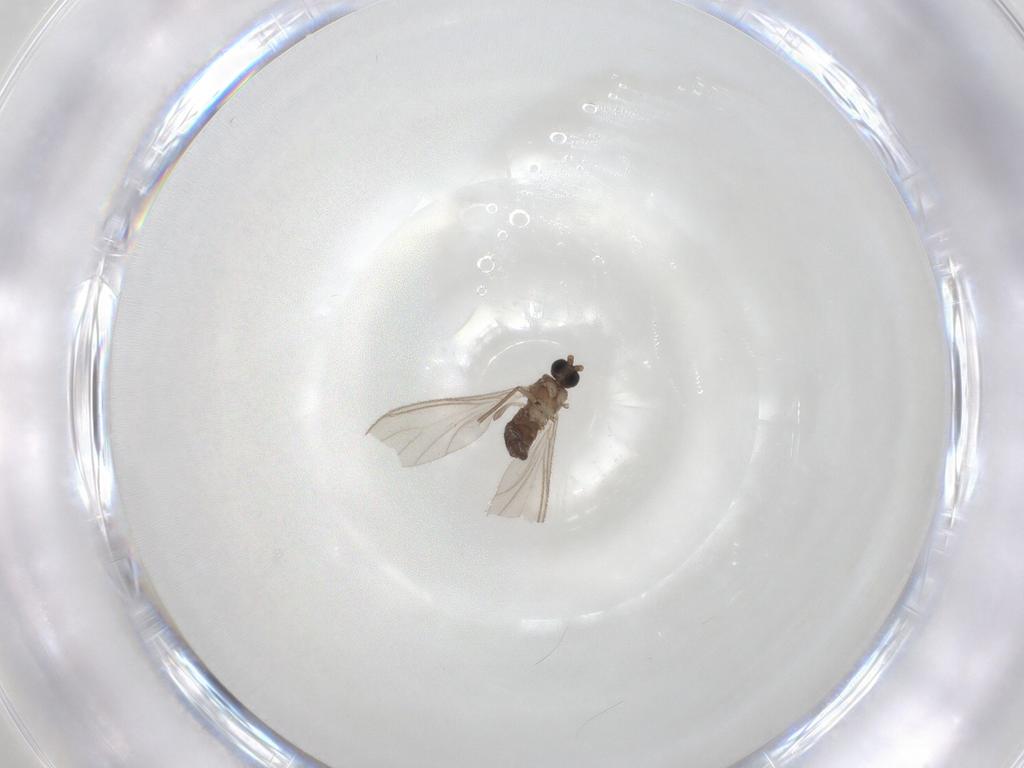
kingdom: Animalia
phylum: Arthropoda
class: Insecta
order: Diptera
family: Sciaridae
